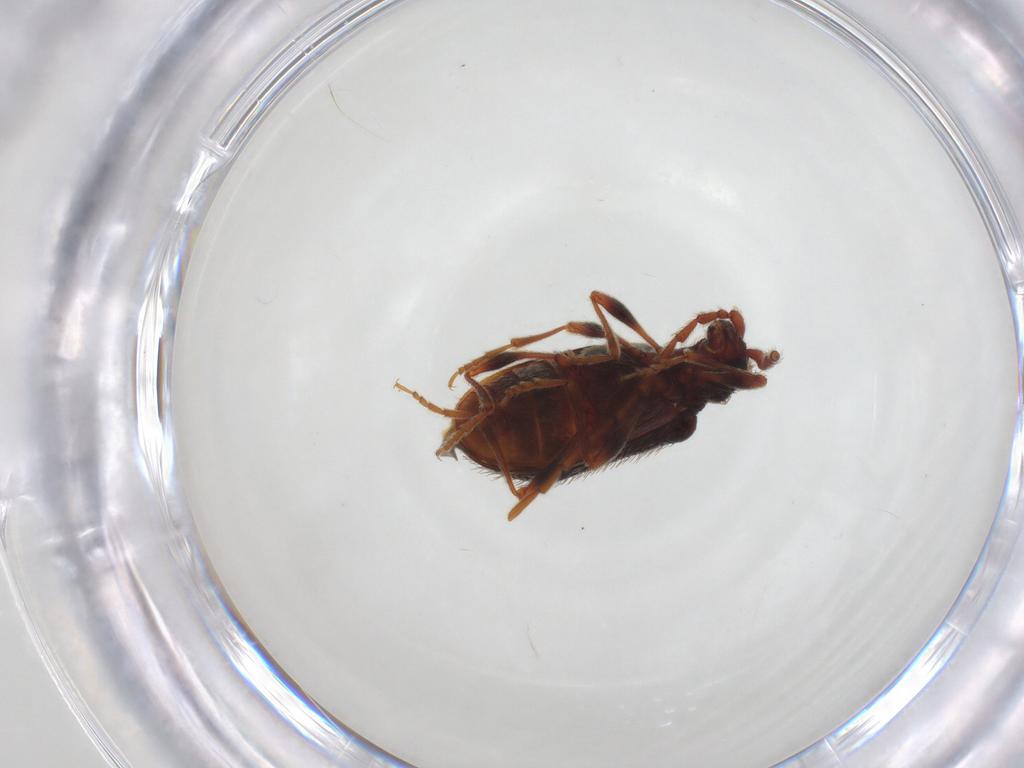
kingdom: Animalia
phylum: Arthropoda
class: Insecta
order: Coleoptera
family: Ptinidae
